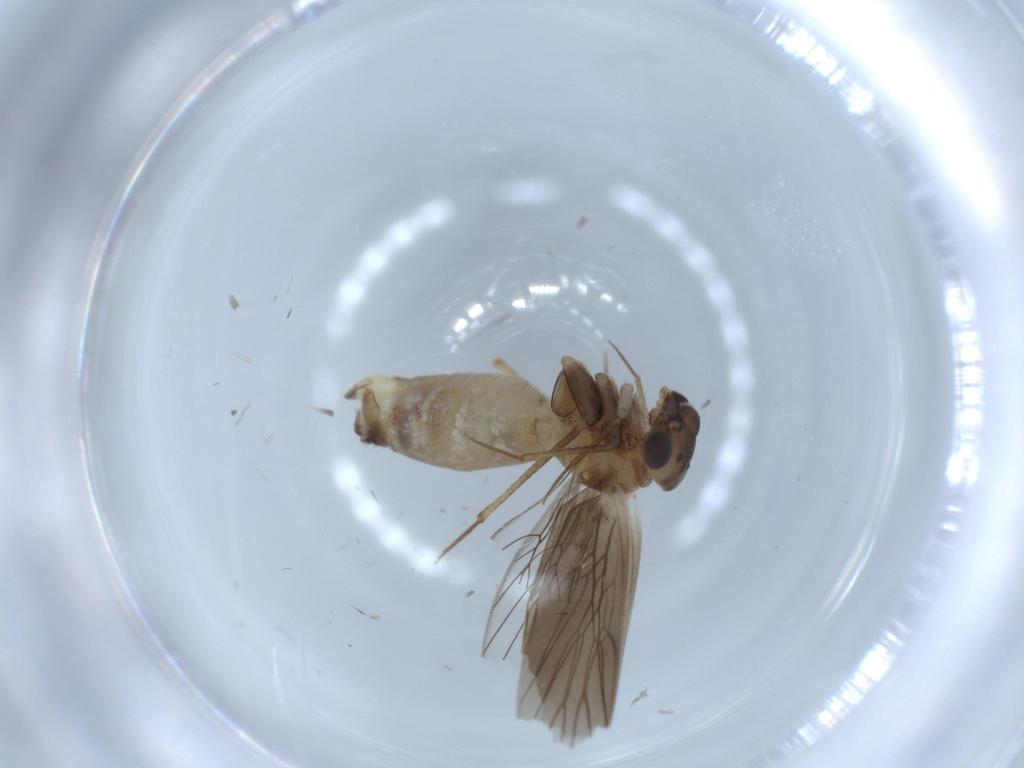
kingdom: Animalia
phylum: Arthropoda
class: Insecta
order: Psocodea
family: Lepidopsocidae
